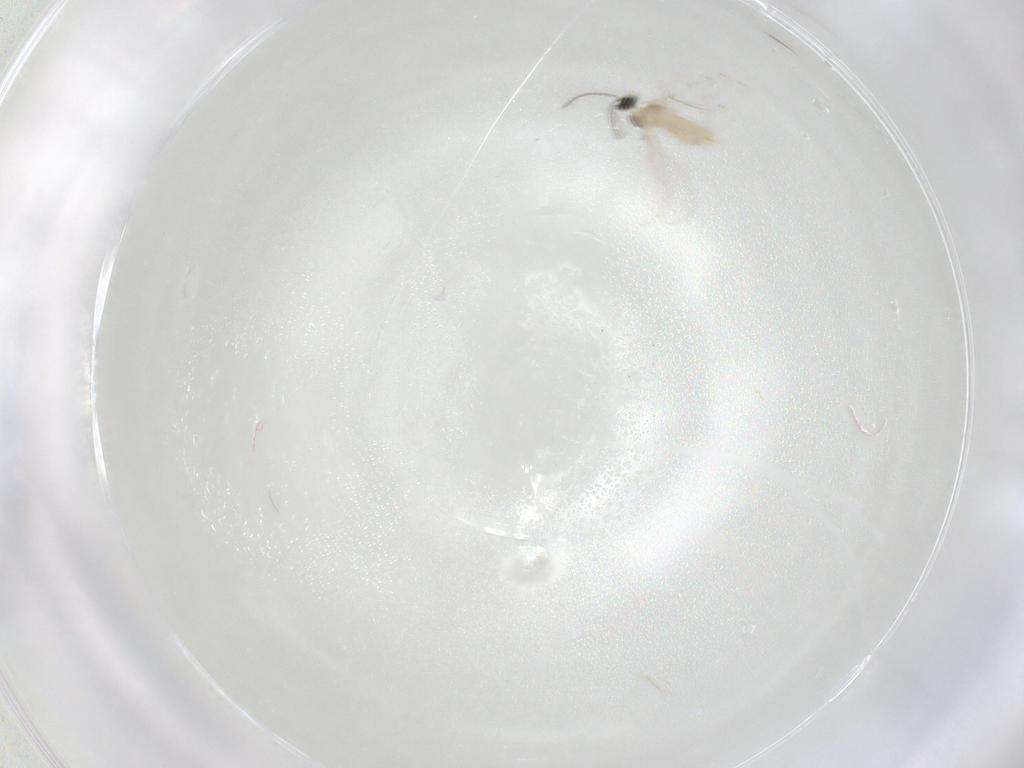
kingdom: Animalia
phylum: Arthropoda
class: Insecta
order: Diptera
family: Cecidomyiidae
